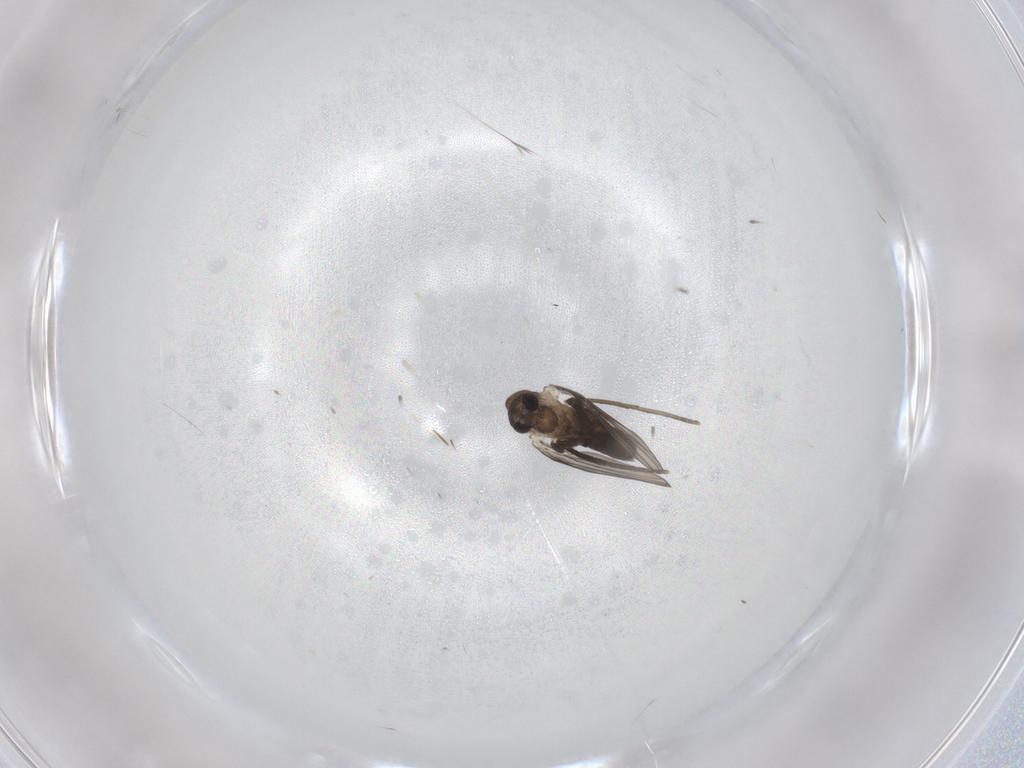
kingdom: Animalia
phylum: Arthropoda
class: Insecta
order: Diptera
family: Psychodidae
